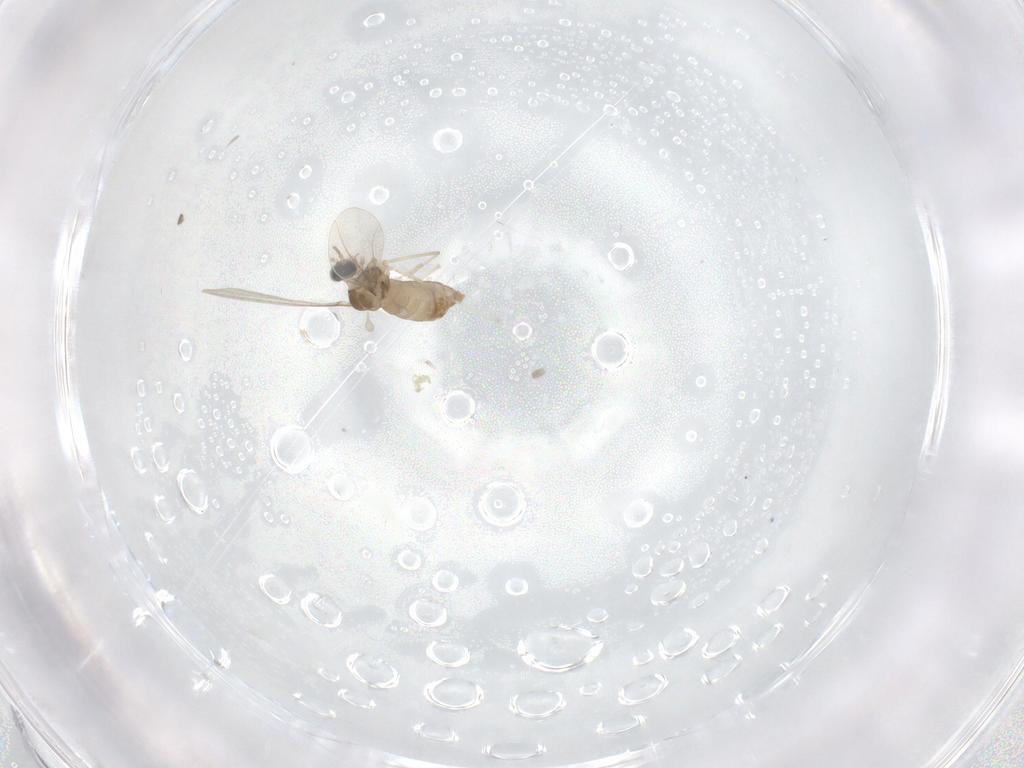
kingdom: Animalia
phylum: Arthropoda
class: Insecta
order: Diptera
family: Cecidomyiidae
